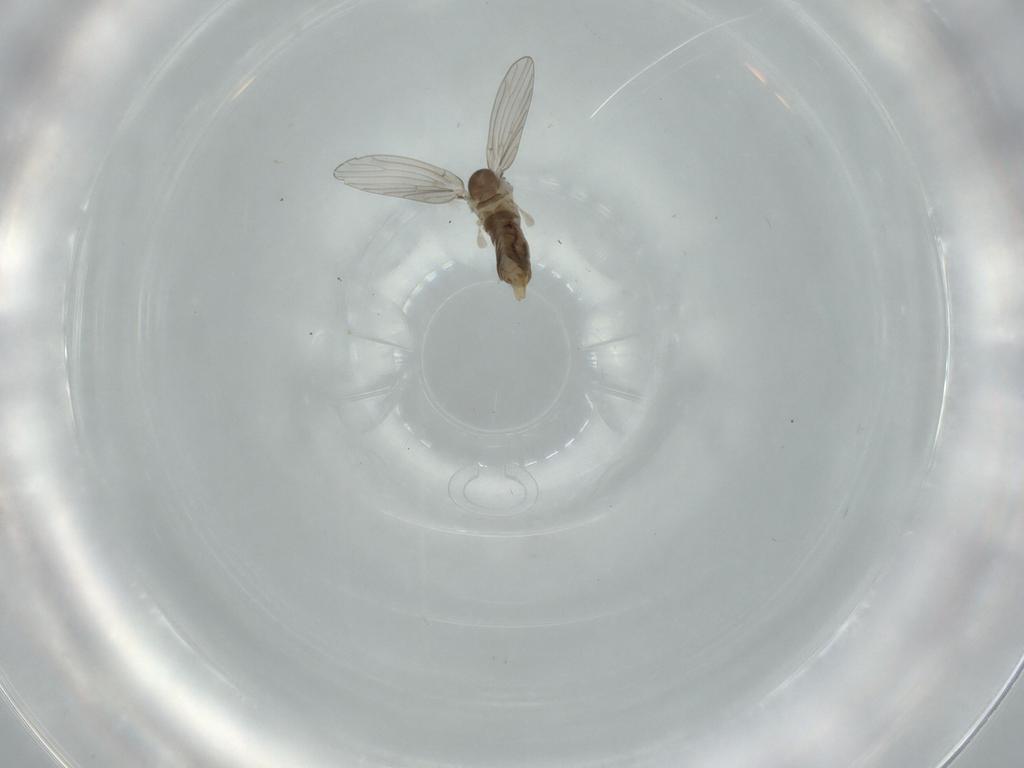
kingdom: Animalia
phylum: Arthropoda
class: Insecta
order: Diptera
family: Psychodidae
